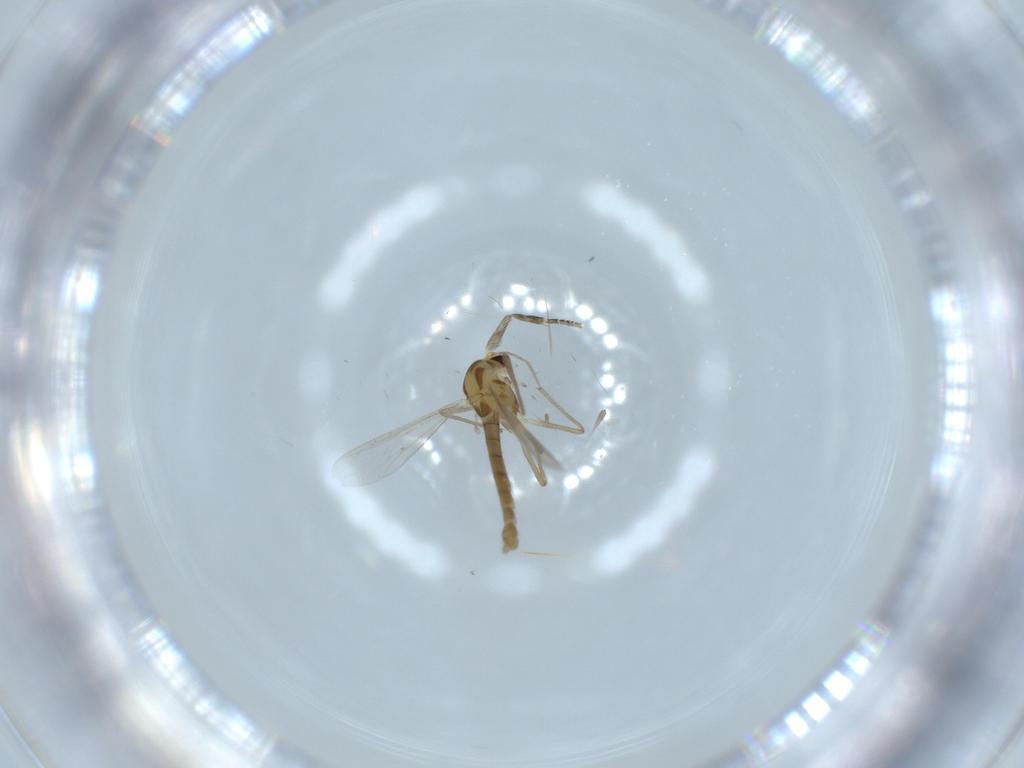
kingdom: Animalia
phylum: Arthropoda
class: Insecta
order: Diptera
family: Chironomidae
